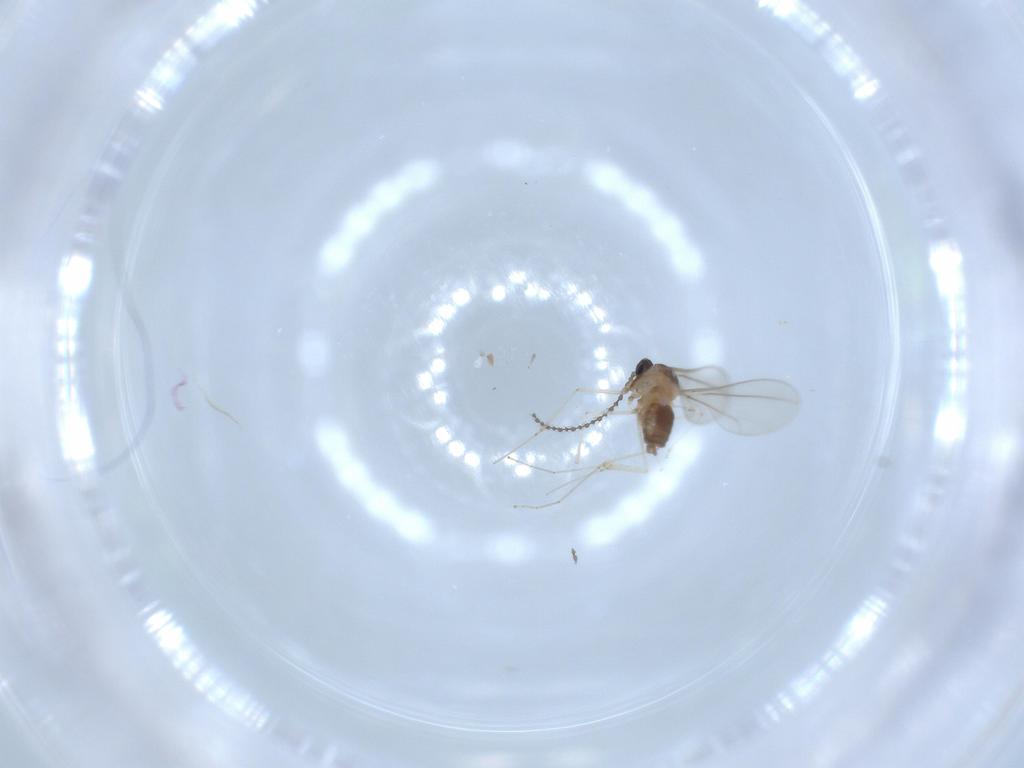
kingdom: Animalia
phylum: Arthropoda
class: Insecta
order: Diptera
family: Cecidomyiidae
